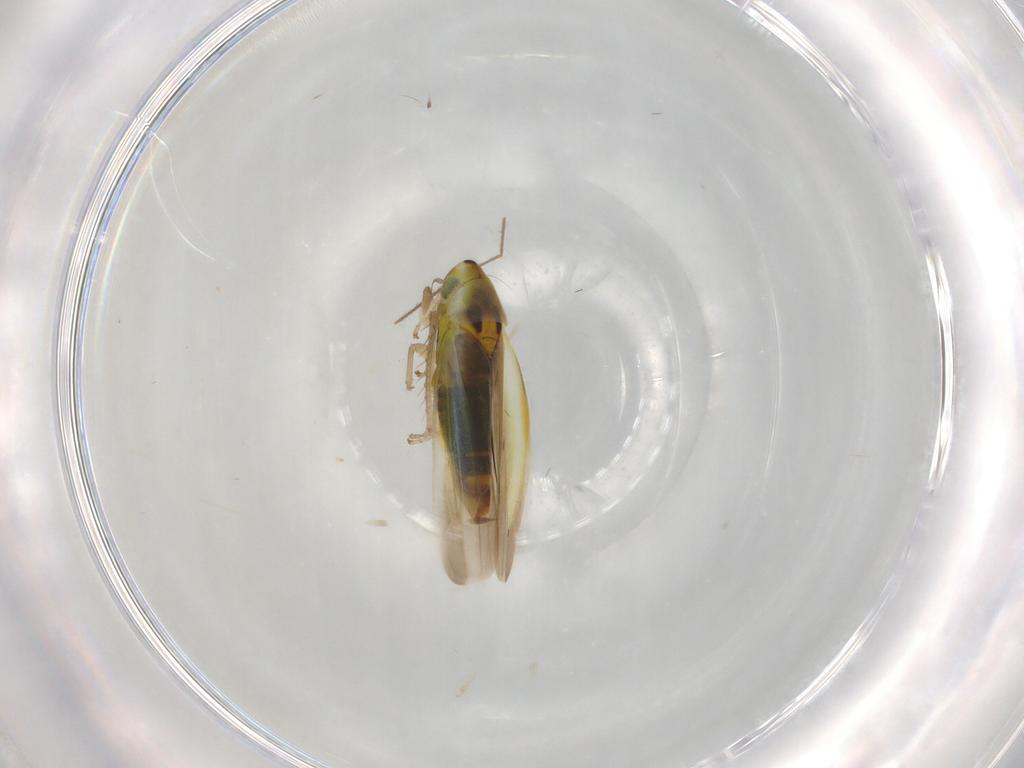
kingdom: Animalia
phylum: Arthropoda
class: Insecta
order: Hemiptera
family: Cicadellidae
